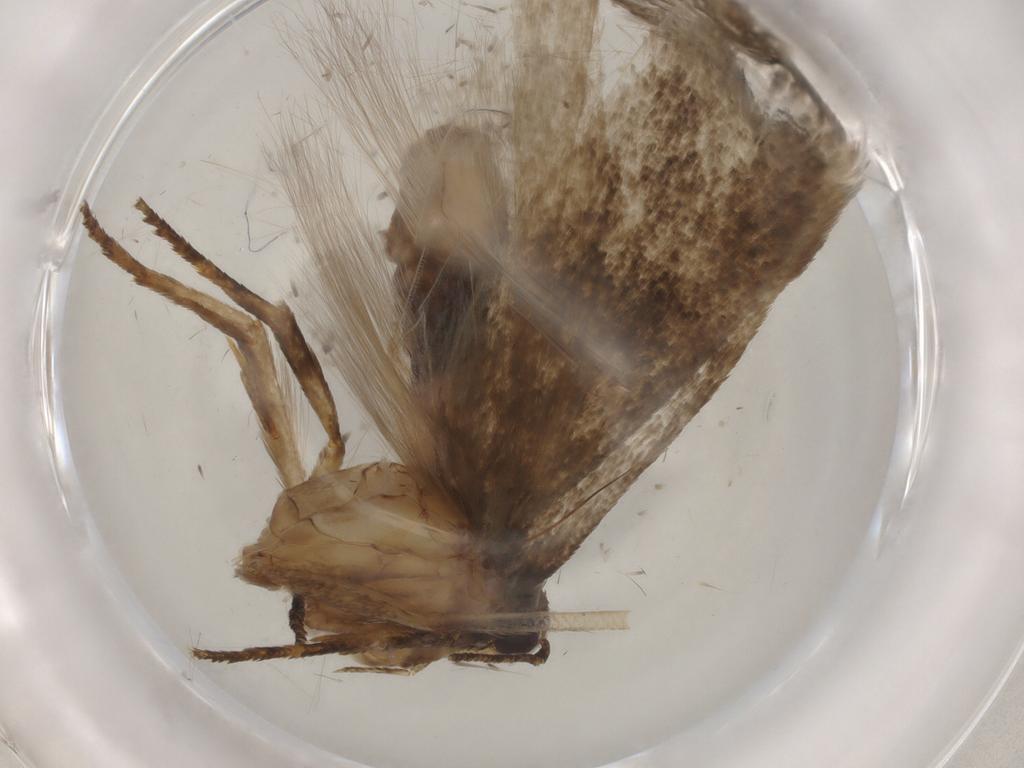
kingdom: Animalia
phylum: Arthropoda
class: Insecta
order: Lepidoptera
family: Gelechiidae
